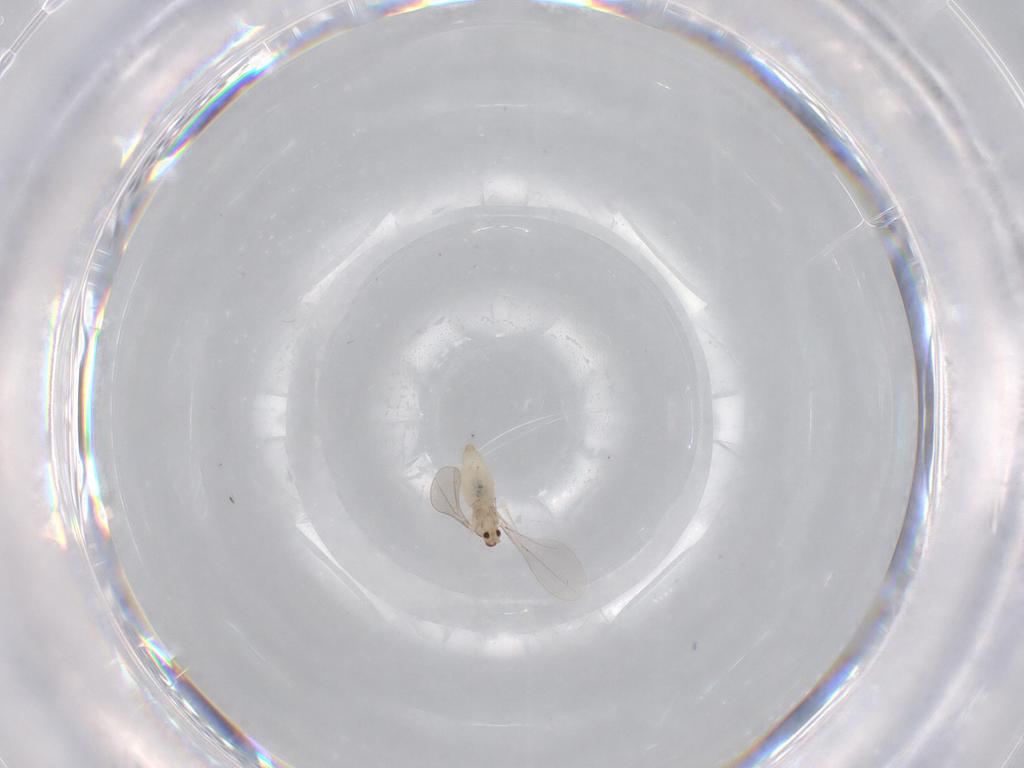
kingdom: Animalia
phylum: Arthropoda
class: Insecta
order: Diptera
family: Cecidomyiidae
